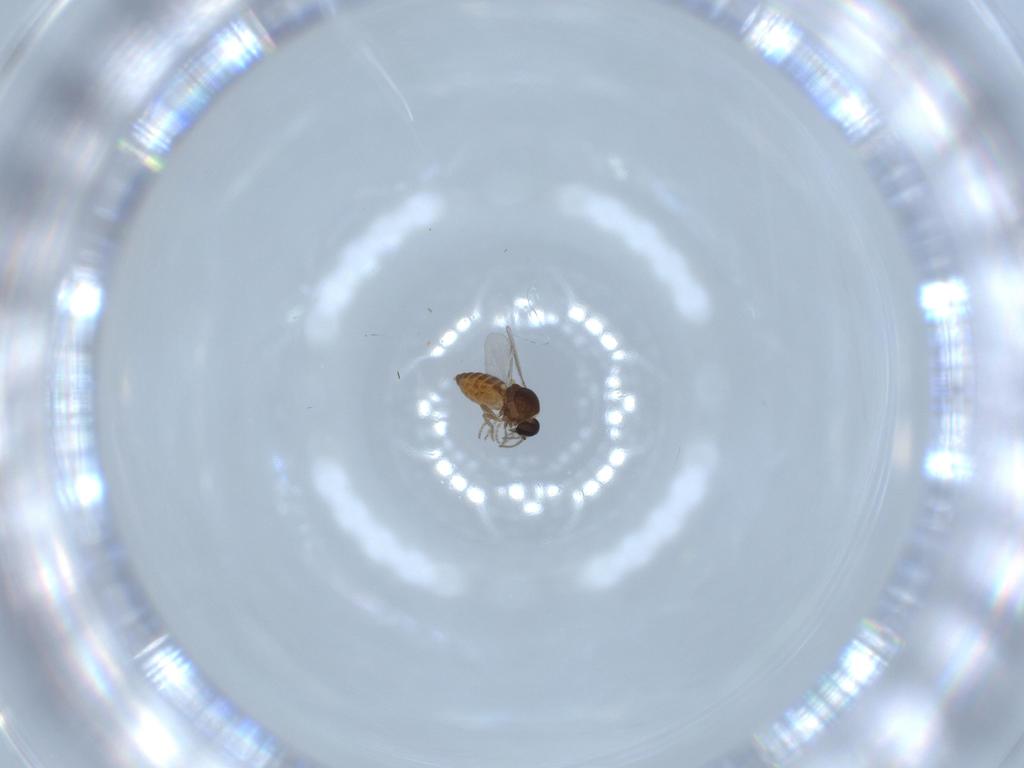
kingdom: Animalia
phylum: Arthropoda
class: Insecta
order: Diptera
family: Ceratopogonidae
